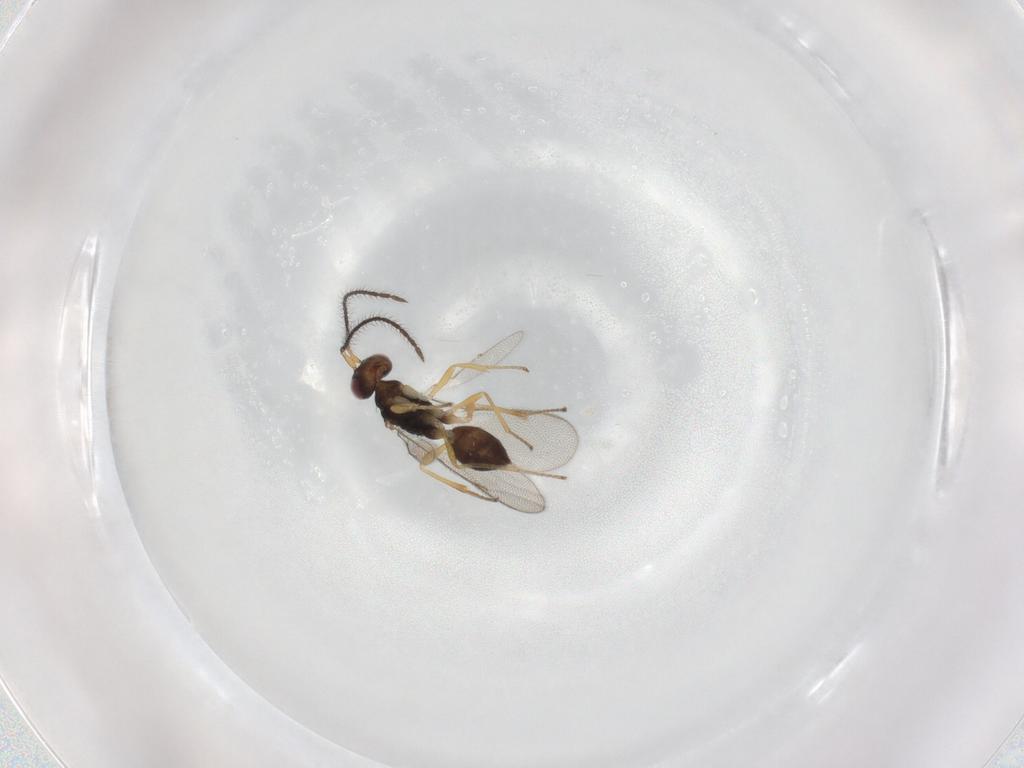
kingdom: Animalia
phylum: Arthropoda
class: Insecta
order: Hymenoptera
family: Diparidae
